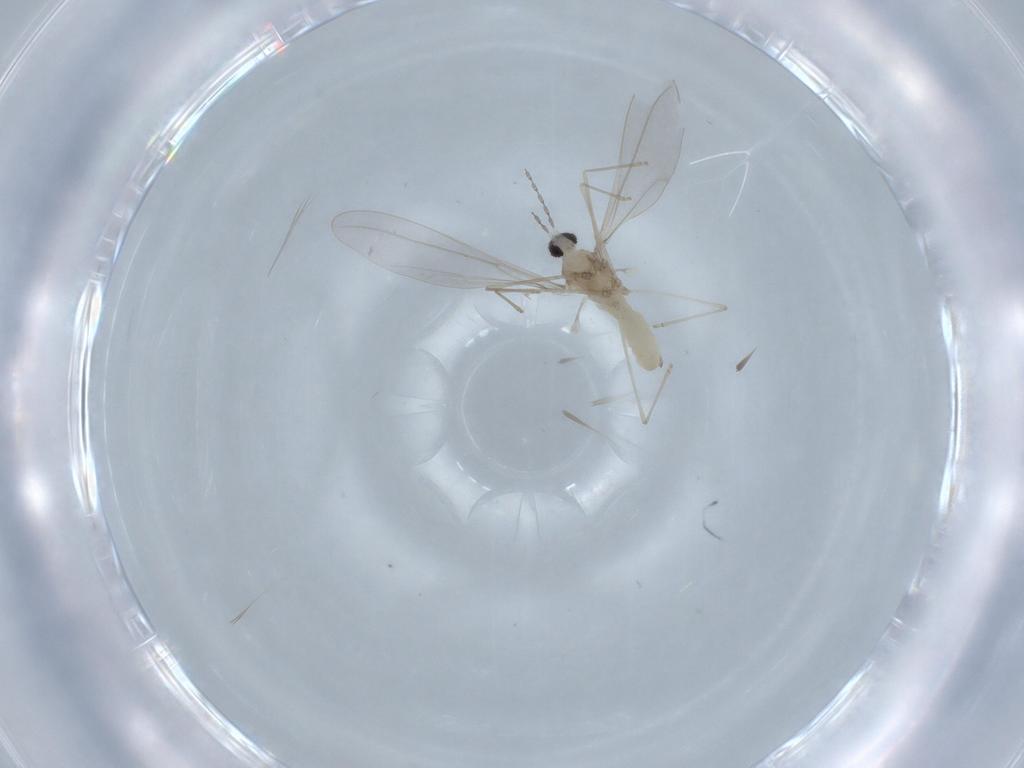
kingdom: Animalia
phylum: Arthropoda
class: Insecta
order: Diptera
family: Cecidomyiidae
